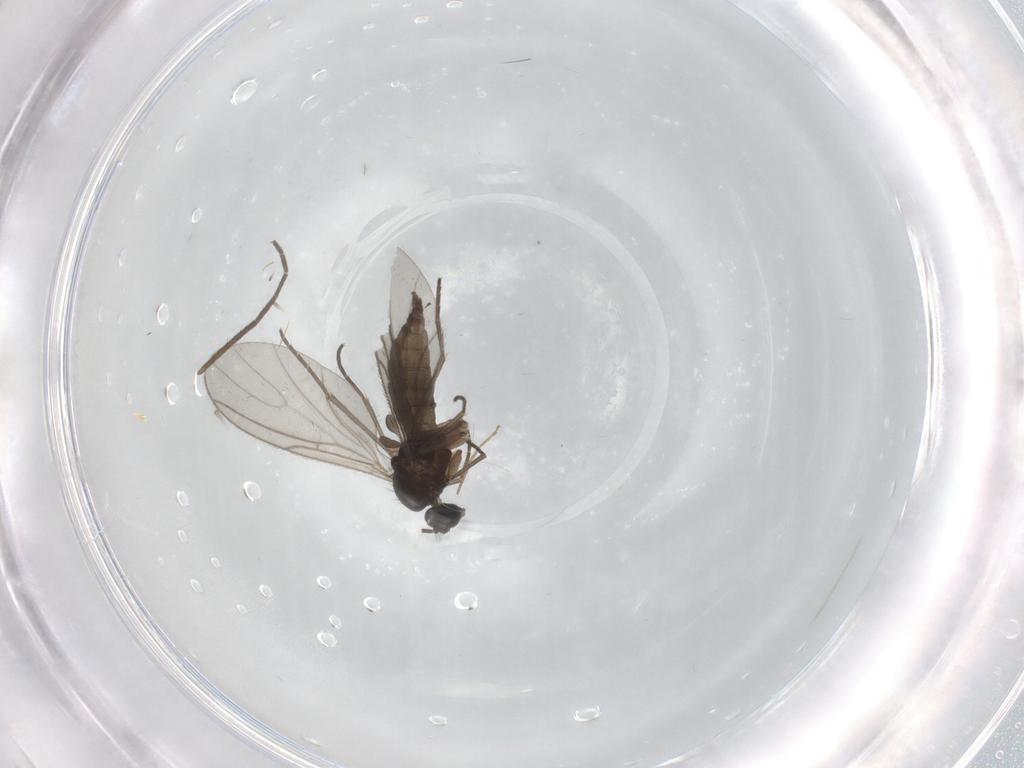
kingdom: Animalia
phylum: Arthropoda
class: Insecta
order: Diptera
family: Sciaridae
